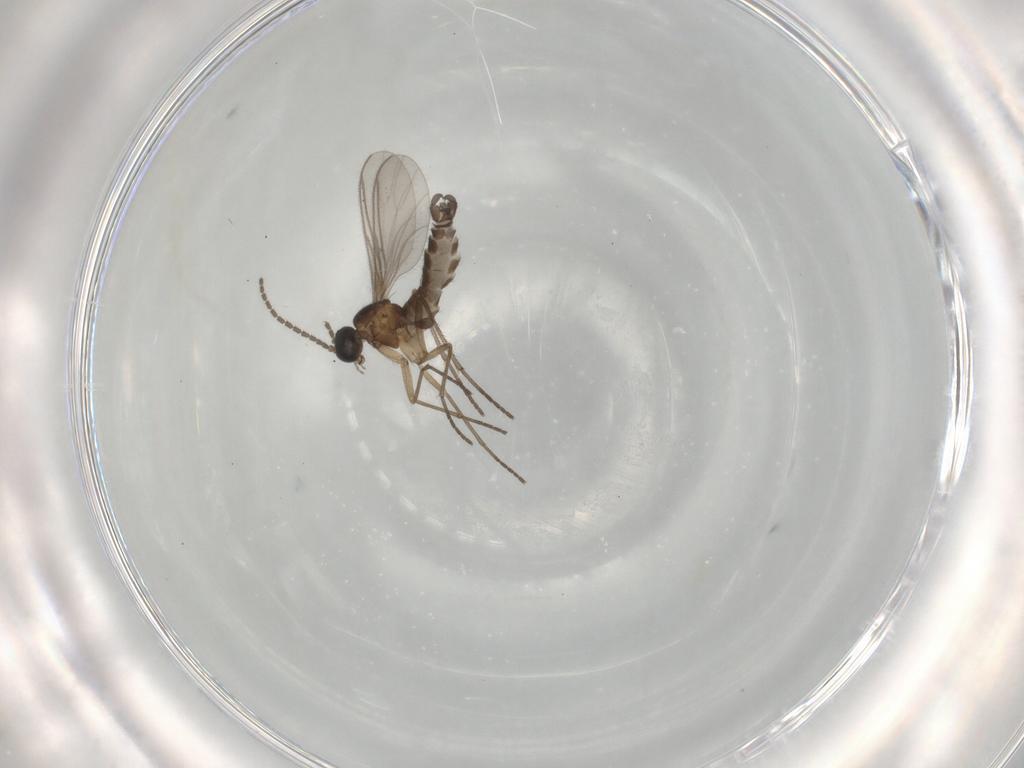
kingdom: Animalia
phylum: Arthropoda
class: Insecta
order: Diptera
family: Sciaridae
